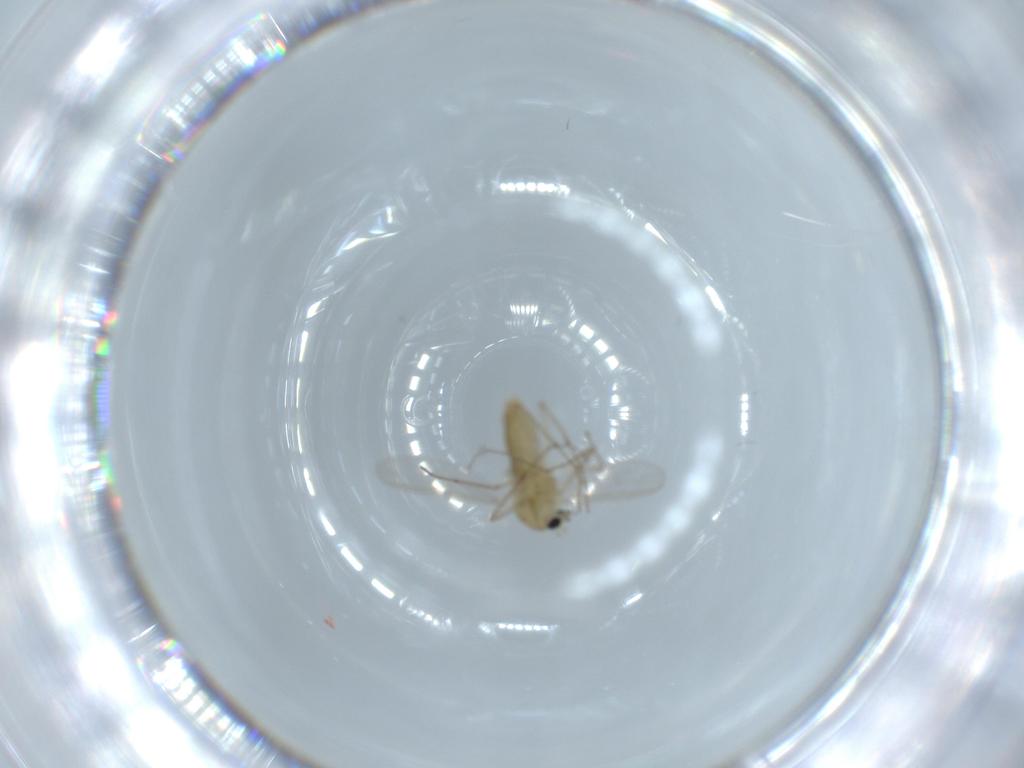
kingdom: Animalia
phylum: Arthropoda
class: Insecta
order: Diptera
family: Chironomidae
